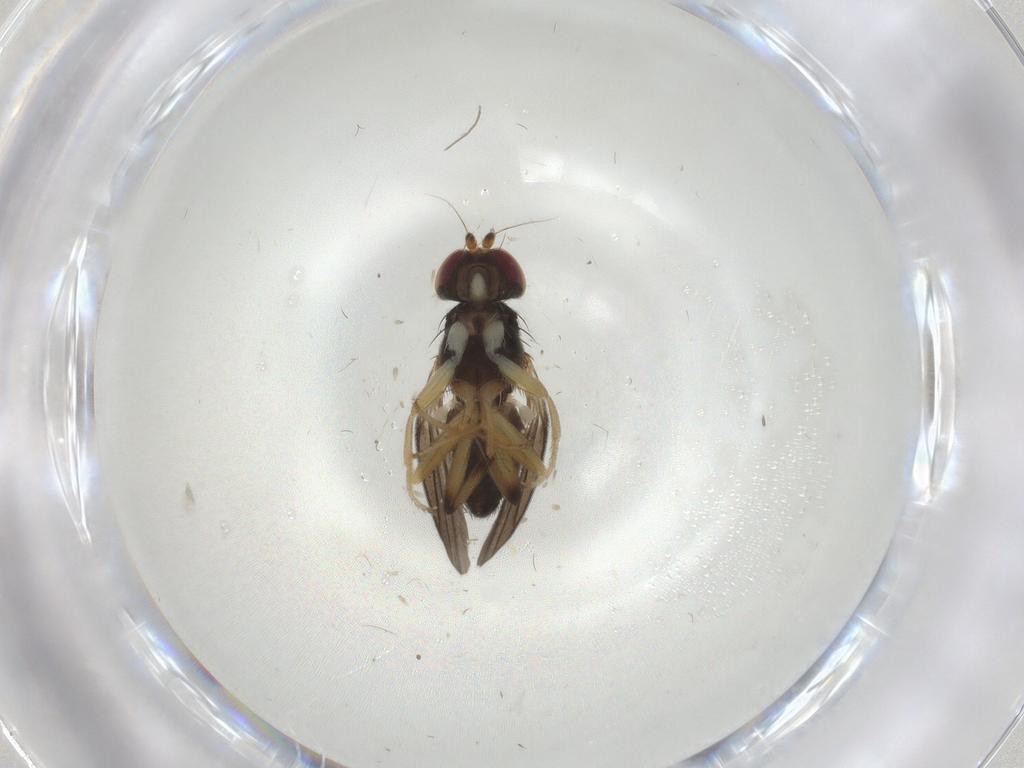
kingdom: Animalia
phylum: Arthropoda
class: Insecta
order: Diptera
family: Clusiidae
